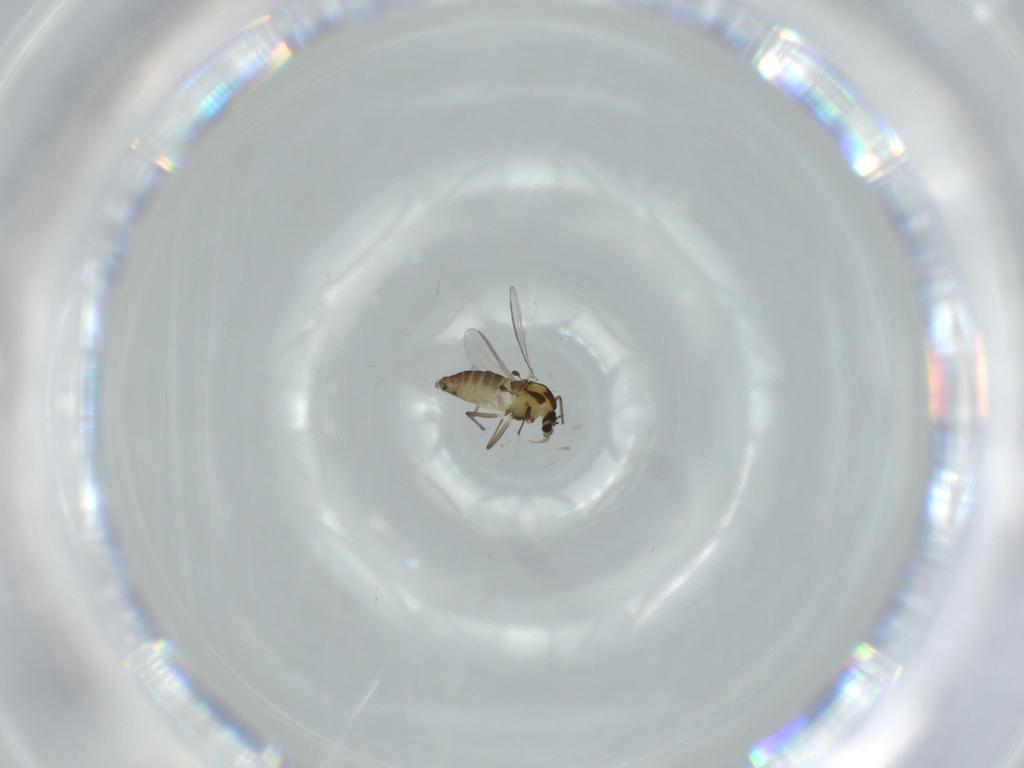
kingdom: Animalia
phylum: Arthropoda
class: Insecta
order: Diptera
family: Chironomidae
